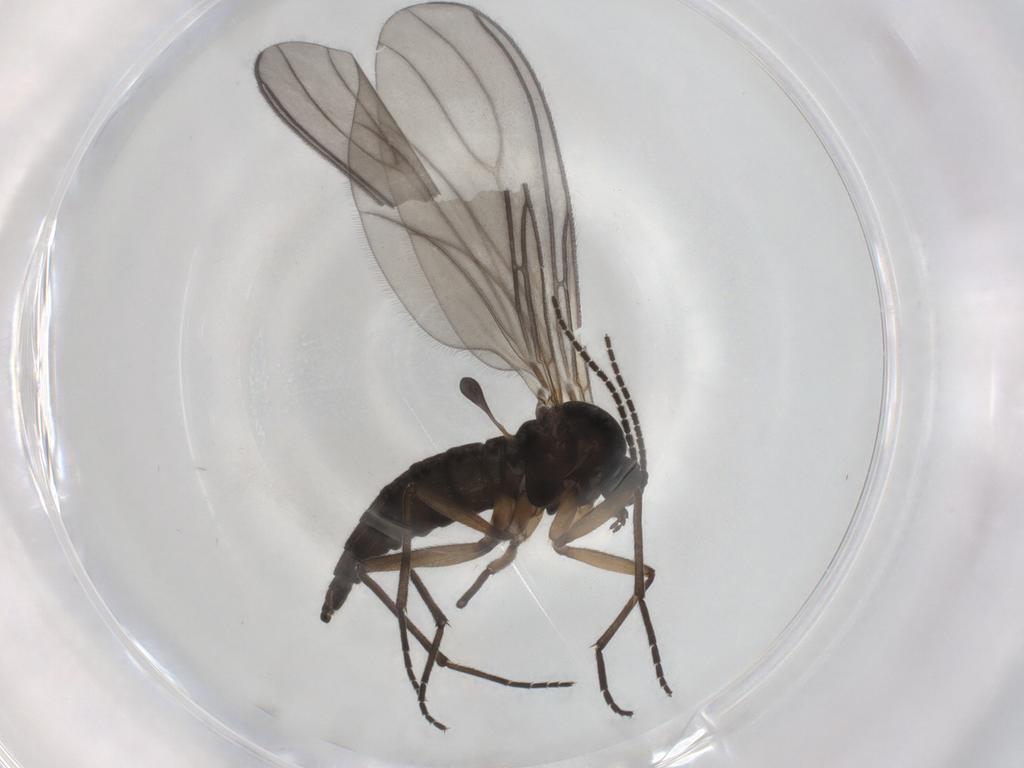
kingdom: Animalia
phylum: Arthropoda
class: Insecta
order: Diptera
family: Sciaridae
